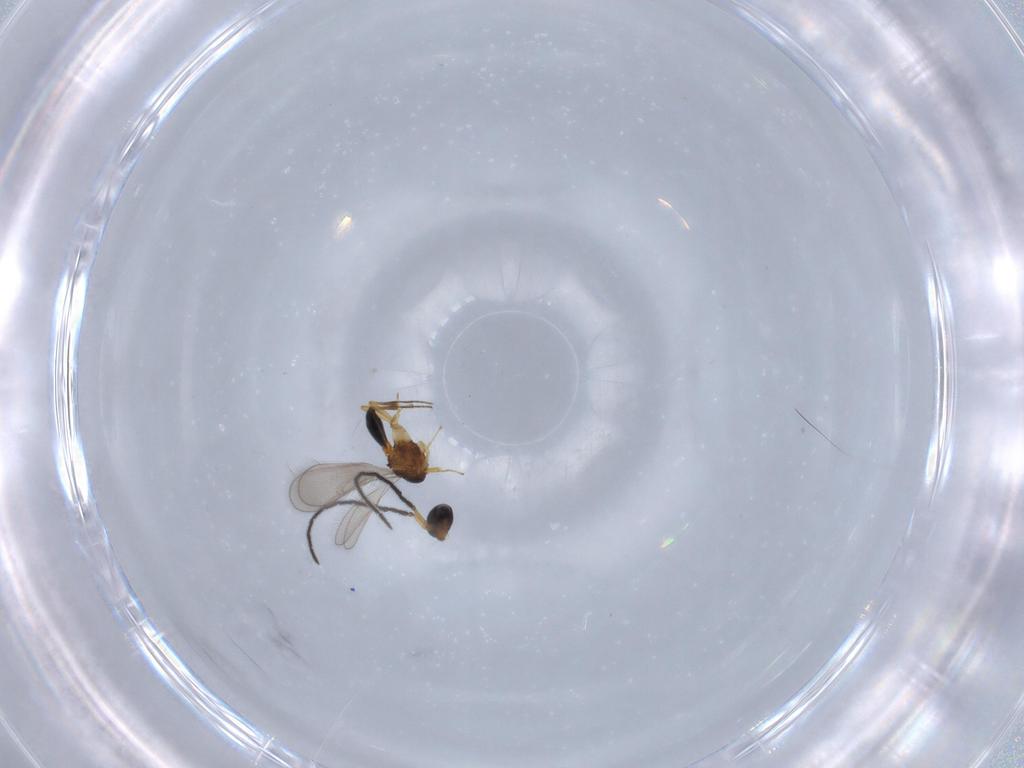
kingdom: Animalia
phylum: Arthropoda
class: Insecta
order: Hymenoptera
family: Scelionidae
